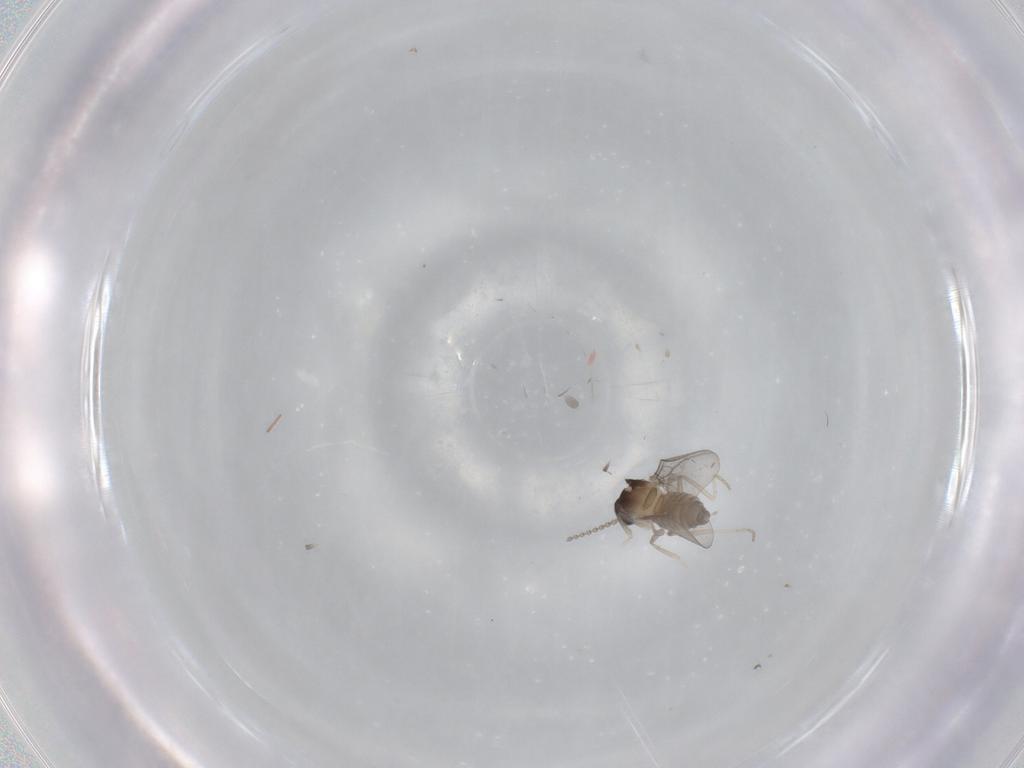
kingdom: Animalia
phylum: Arthropoda
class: Insecta
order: Diptera
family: Cecidomyiidae
